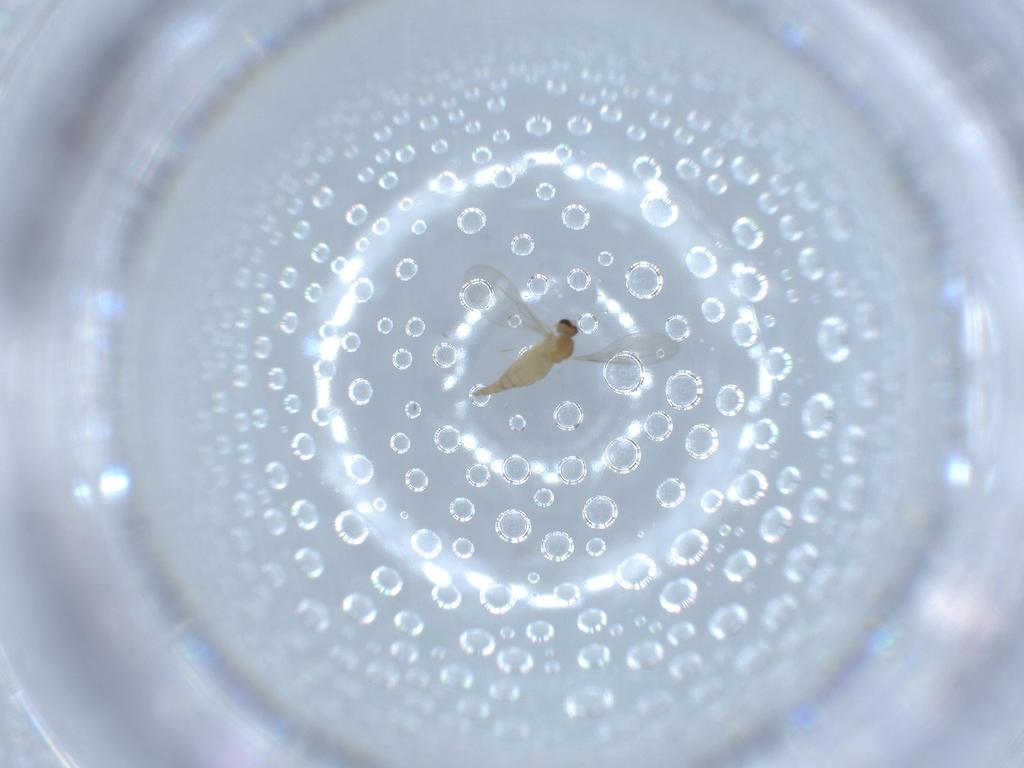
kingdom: Animalia
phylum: Arthropoda
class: Insecta
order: Diptera
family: Cecidomyiidae
